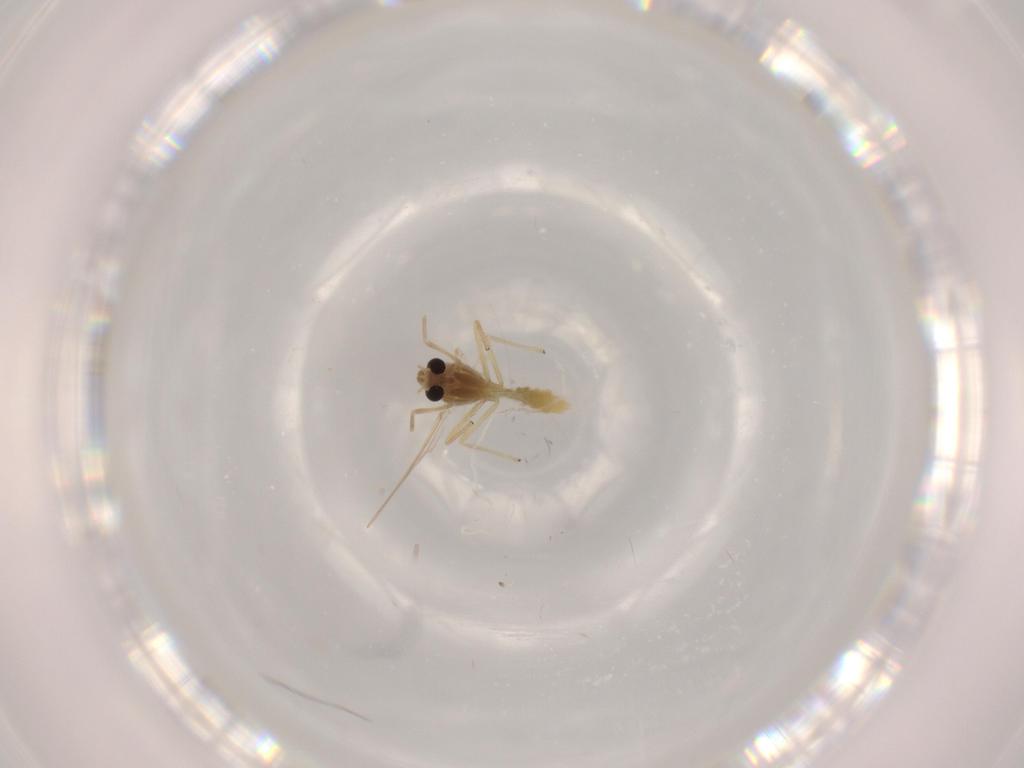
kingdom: Animalia
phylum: Arthropoda
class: Insecta
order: Diptera
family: Chironomidae
